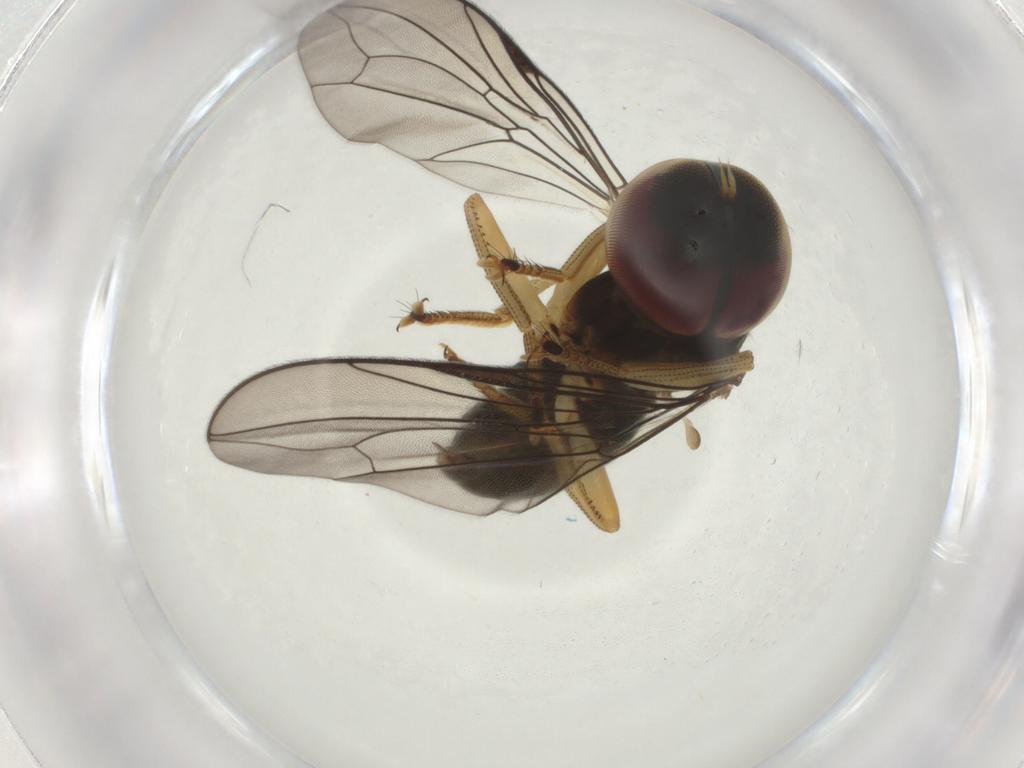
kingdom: Animalia
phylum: Arthropoda
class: Insecta
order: Diptera
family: Pipunculidae
